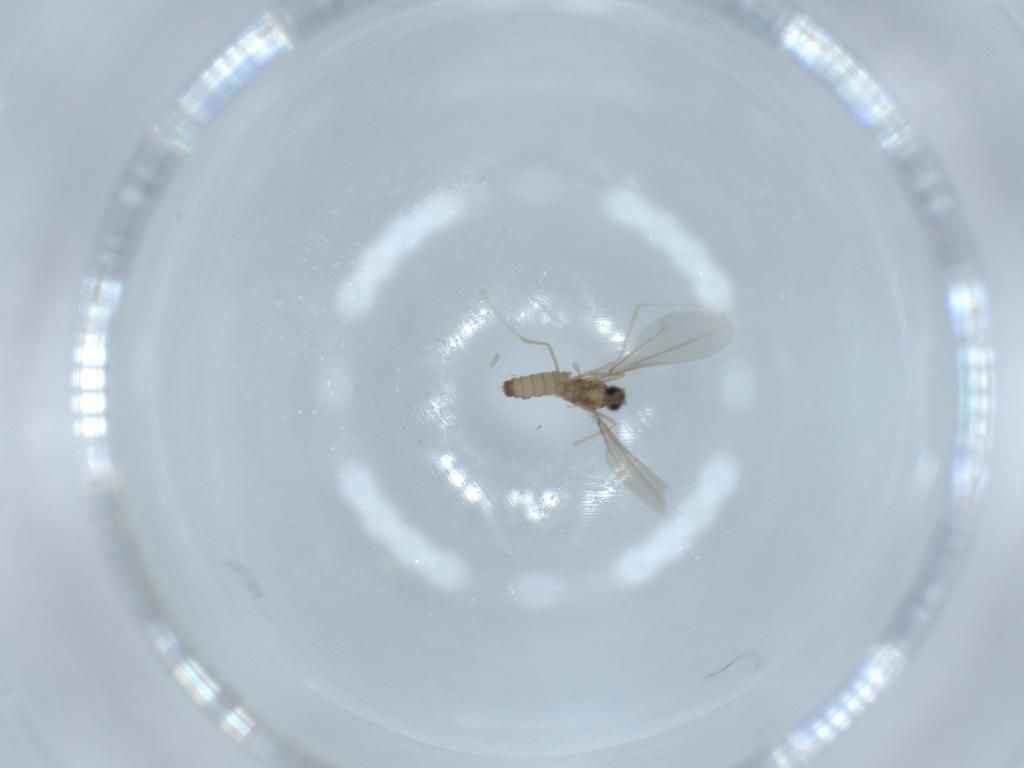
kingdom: Animalia
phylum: Arthropoda
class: Insecta
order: Diptera
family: Cecidomyiidae
